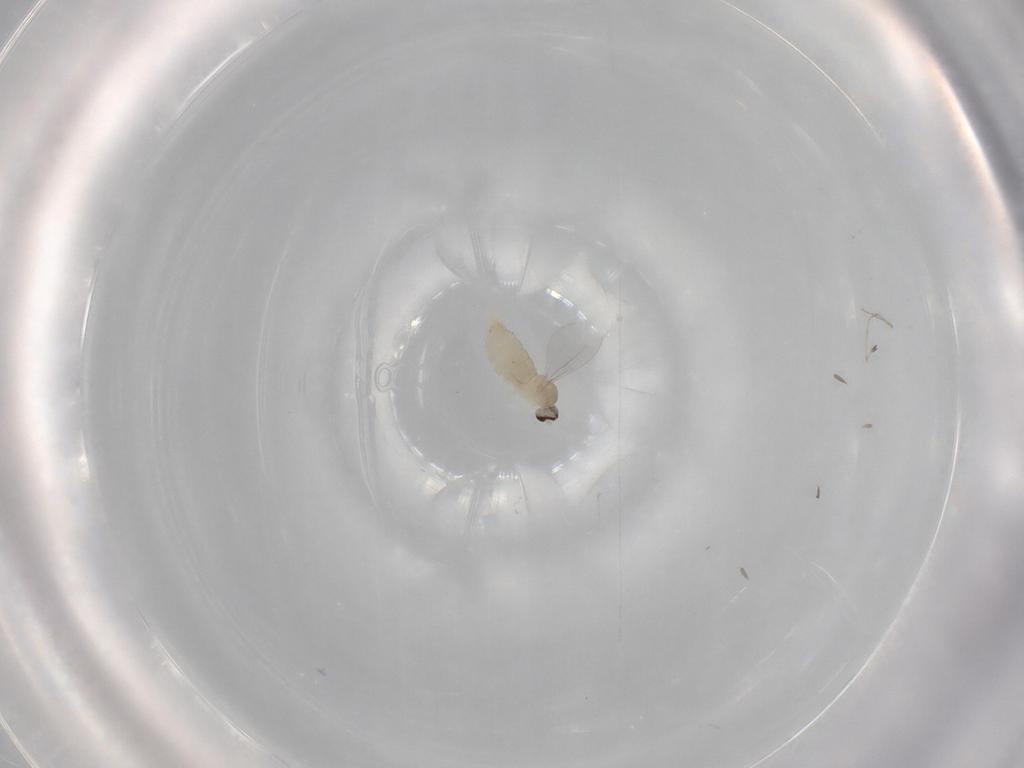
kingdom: Animalia
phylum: Arthropoda
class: Insecta
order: Diptera
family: Cecidomyiidae
